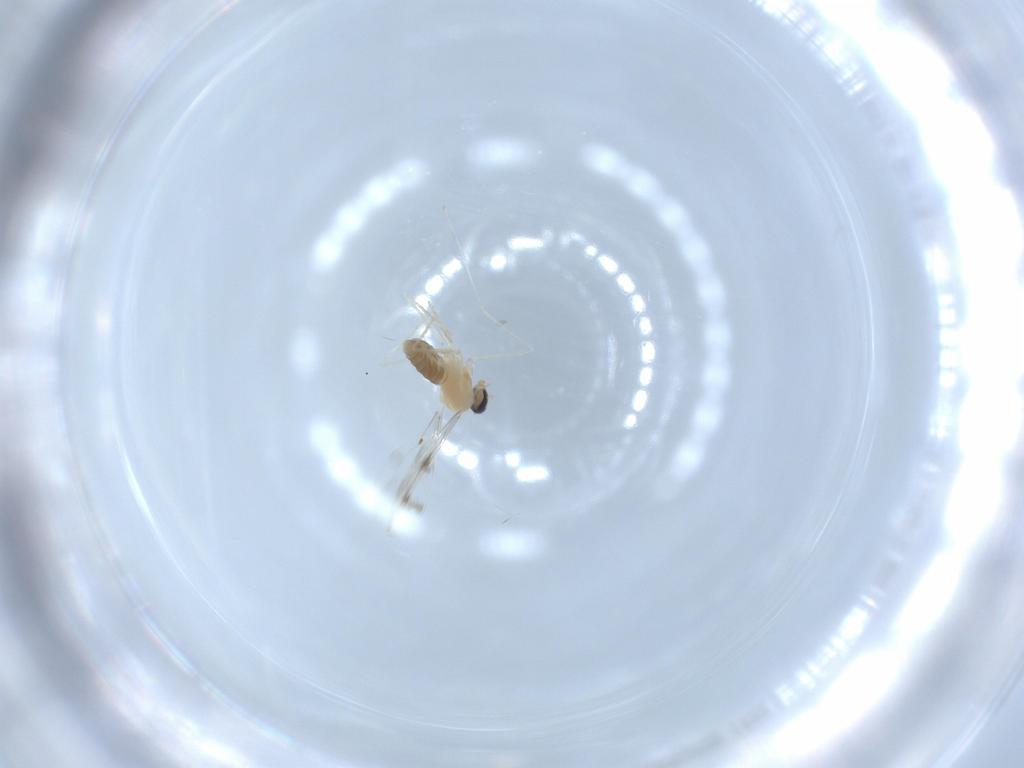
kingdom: Animalia
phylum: Arthropoda
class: Insecta
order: Diptera
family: Cecidomyiidae
